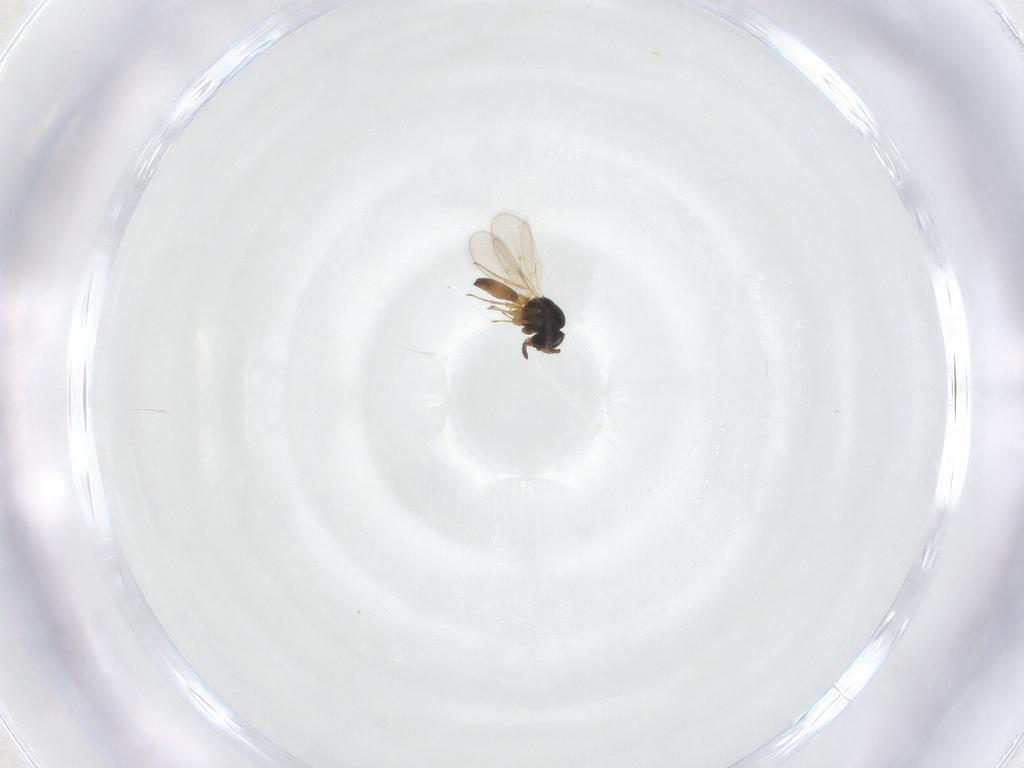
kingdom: Animalia
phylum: Arthropoda
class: Insecta
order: Hymenoptera
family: Scelionidae
